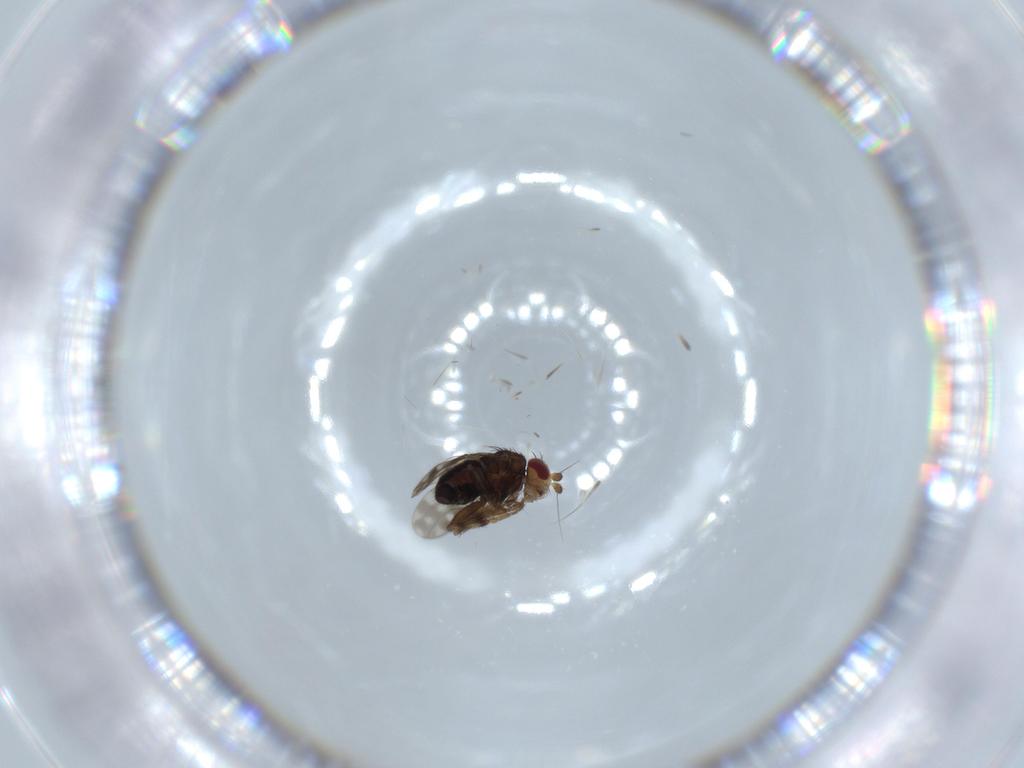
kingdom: Animalia
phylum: Arthropoda
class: Insecta
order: Diptera
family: Sphaeroceridae
